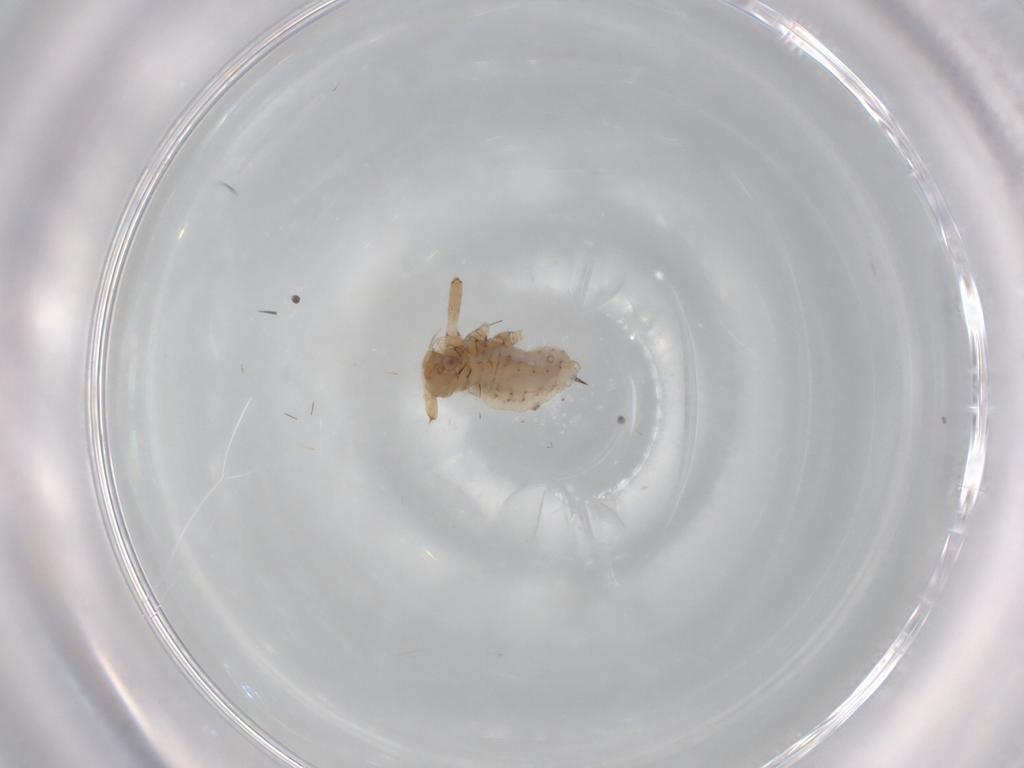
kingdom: Animalia
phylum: Arthropoda
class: Insecta
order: Hemiptera
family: Aphididae
